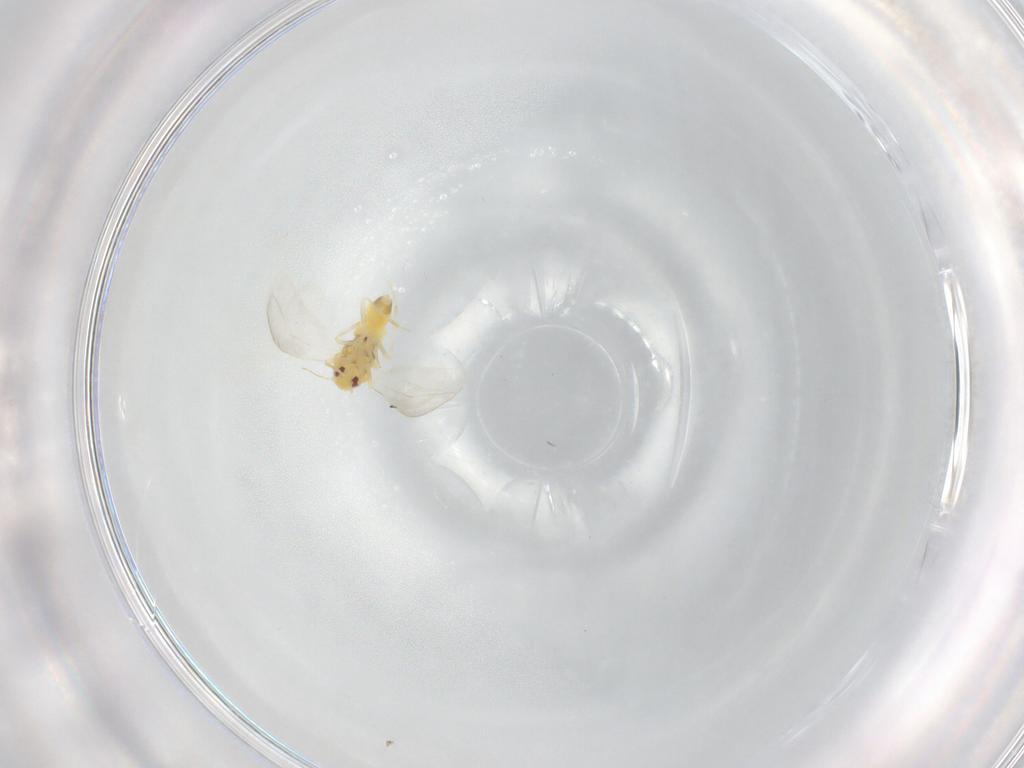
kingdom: Animalia
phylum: Arthropoda
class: Insecta
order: Hemiptera
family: Aleyrodidae
